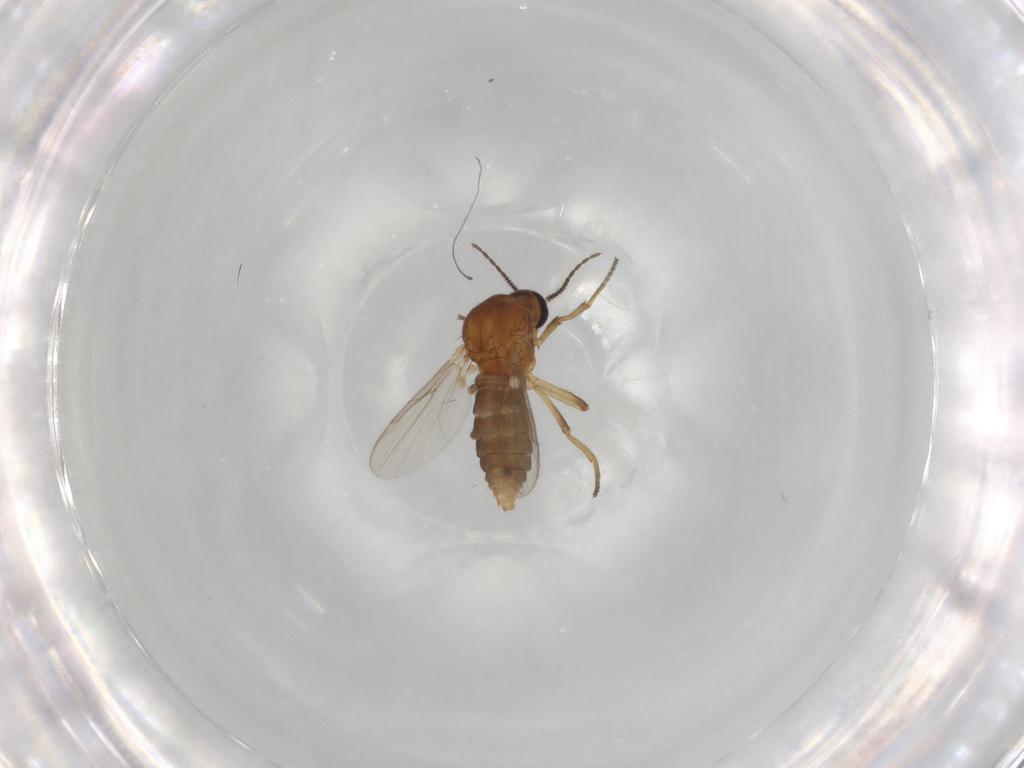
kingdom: Animalia
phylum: Arthropoda
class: Insecta
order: Diptera
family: Ceratopogonidae
